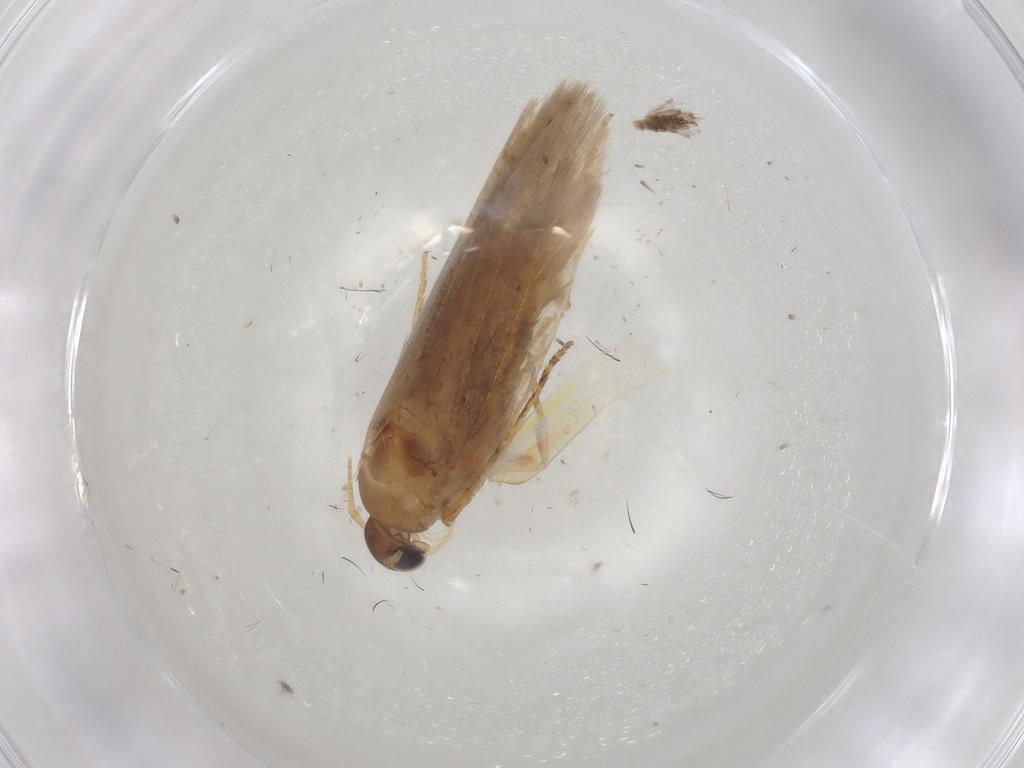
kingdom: Animalia
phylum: Arthropoda
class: Insecta
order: Lepidoptera
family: Gelechiidae
